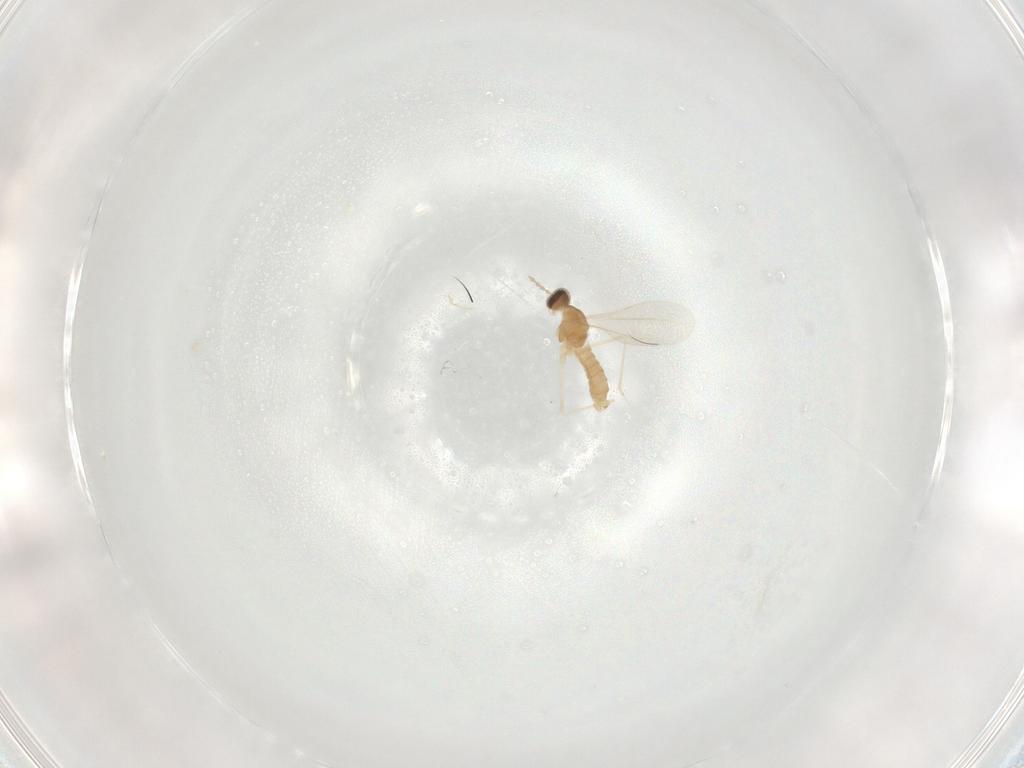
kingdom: Animalia
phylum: Arthropoda
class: Insecta
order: Diptera
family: Cecidomyiidae
